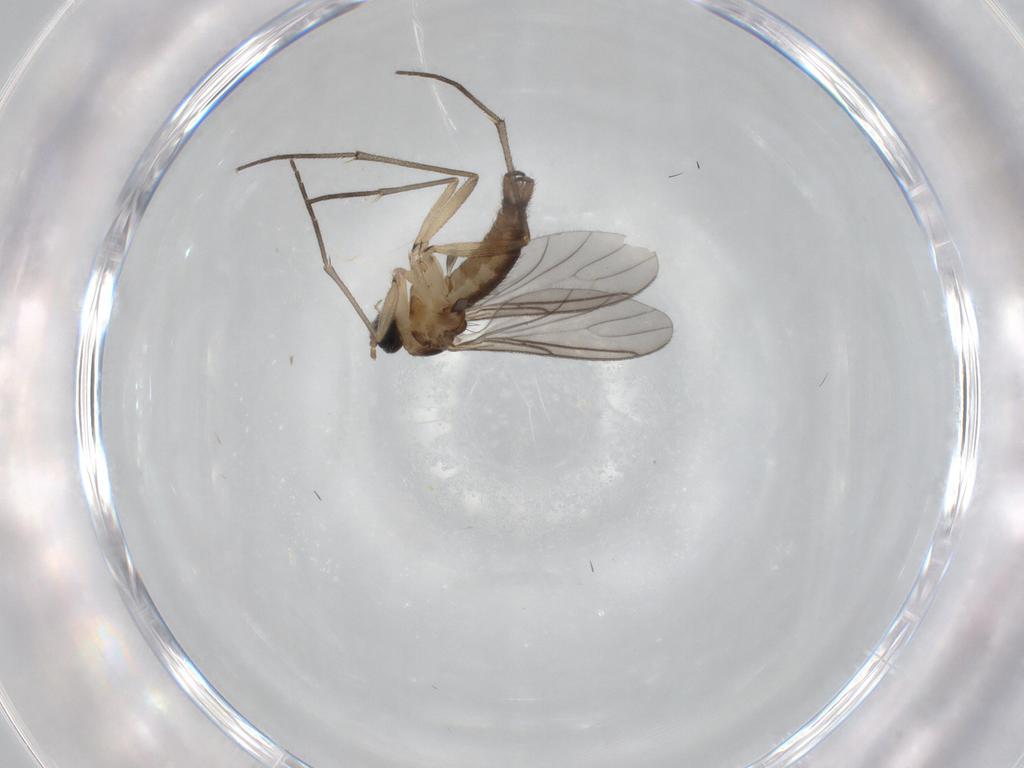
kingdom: Animalia
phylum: Arthropoda
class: Insecta
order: Diptera
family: Sciaridae
